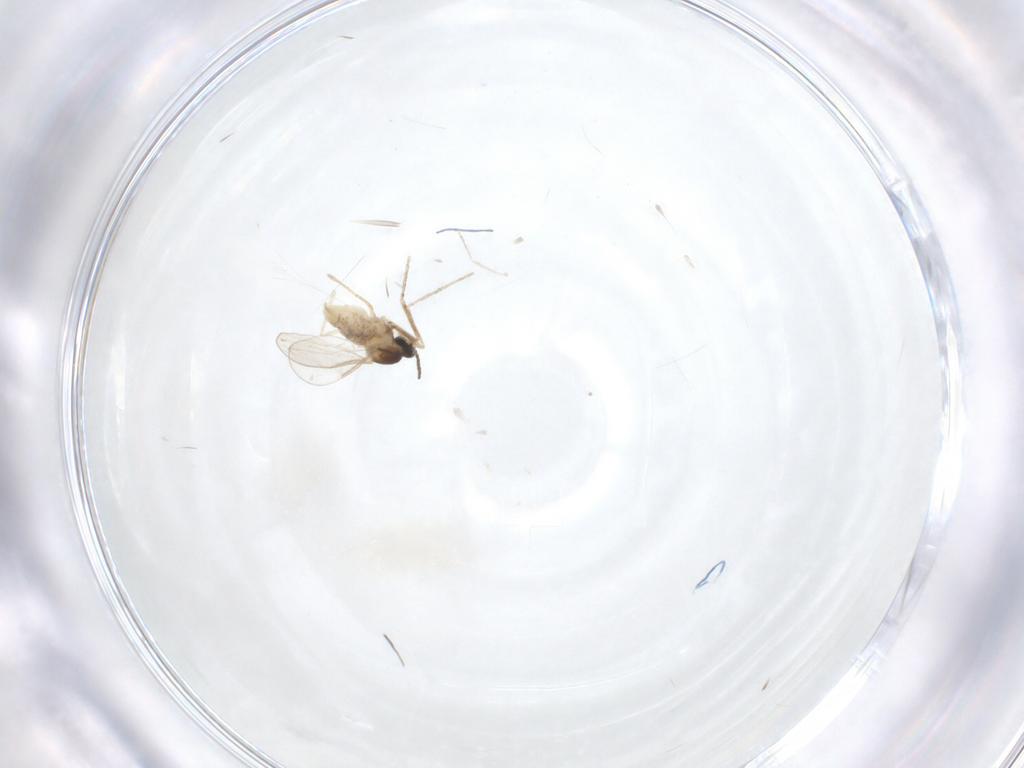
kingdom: Animalia
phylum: Arthropoda
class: Insecta
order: Diptera
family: Cecidomyiidae
